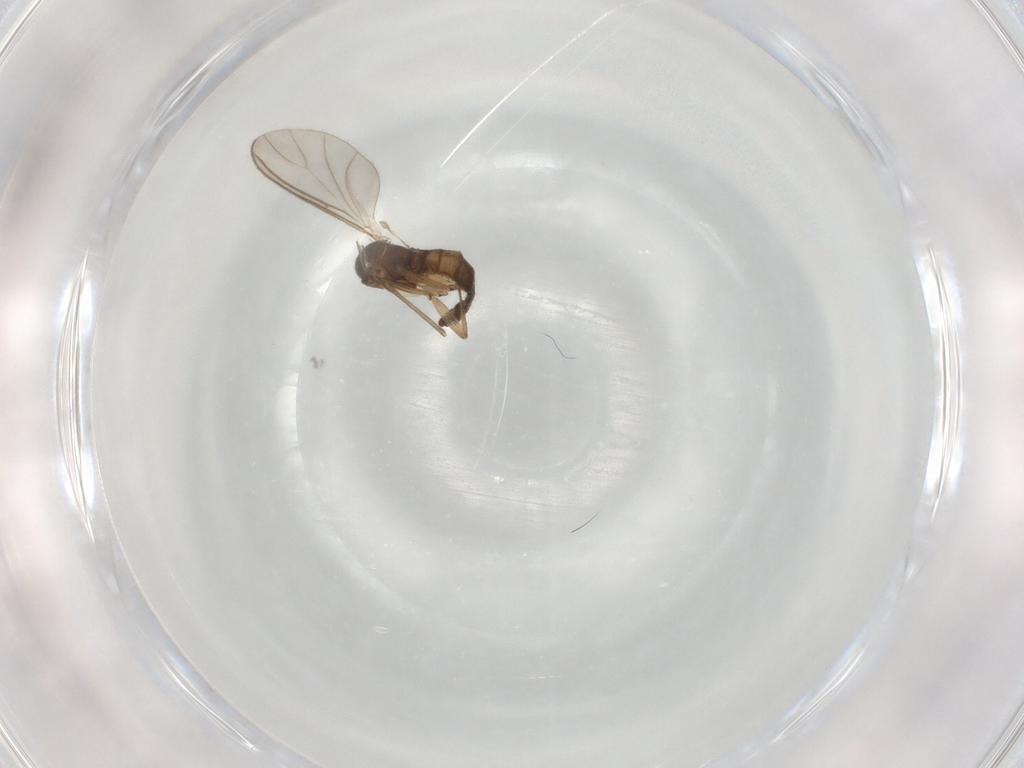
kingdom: Animalia
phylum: Arthropoda
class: Insecta
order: Diptera
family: Sciaridae
